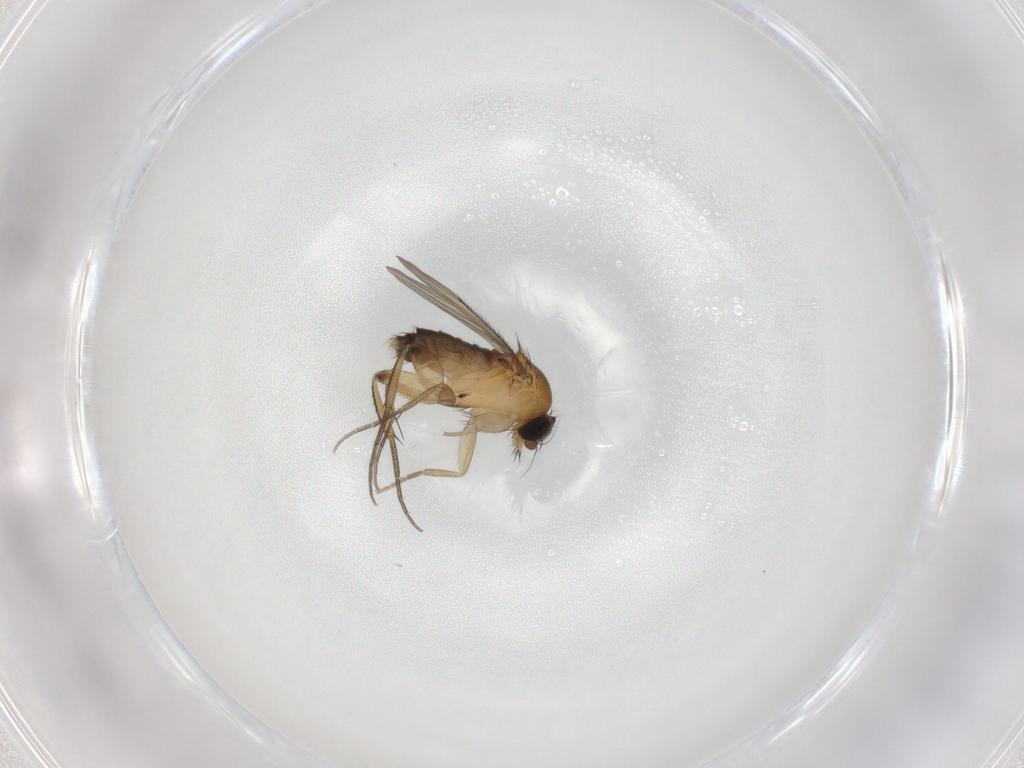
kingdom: Animalia
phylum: Arthropoda
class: Insecta
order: Diptera
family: Phoridae
